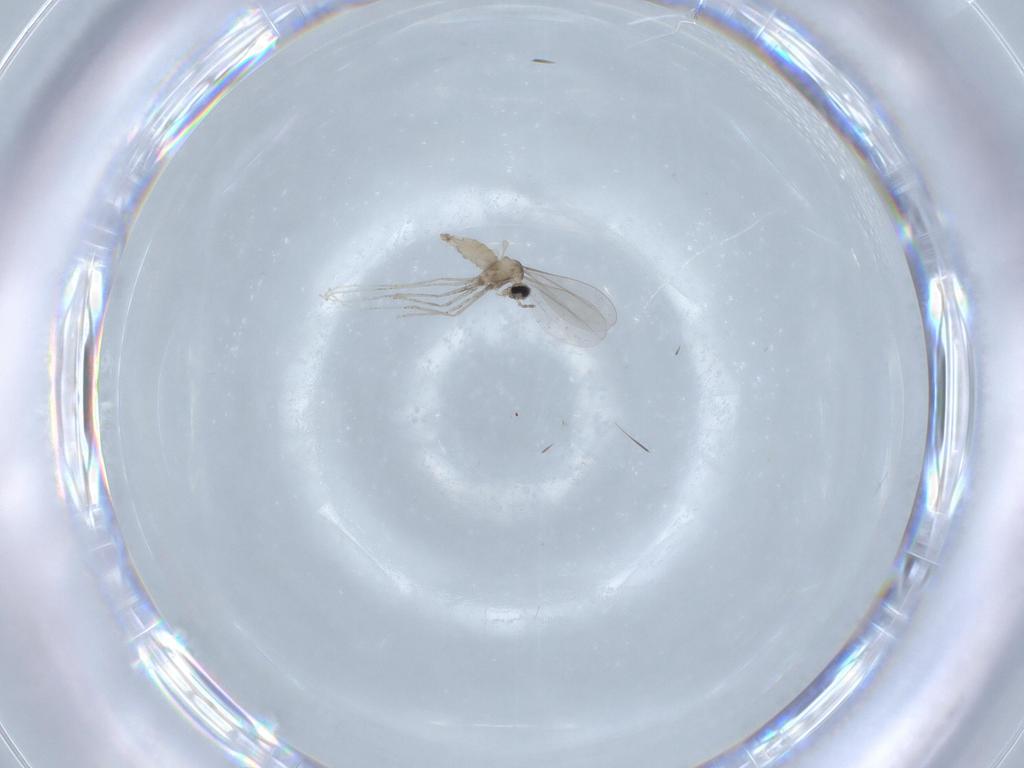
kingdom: Animalia
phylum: Arthropoda
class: Insecta
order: Diptera
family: Cecidomyiidae
